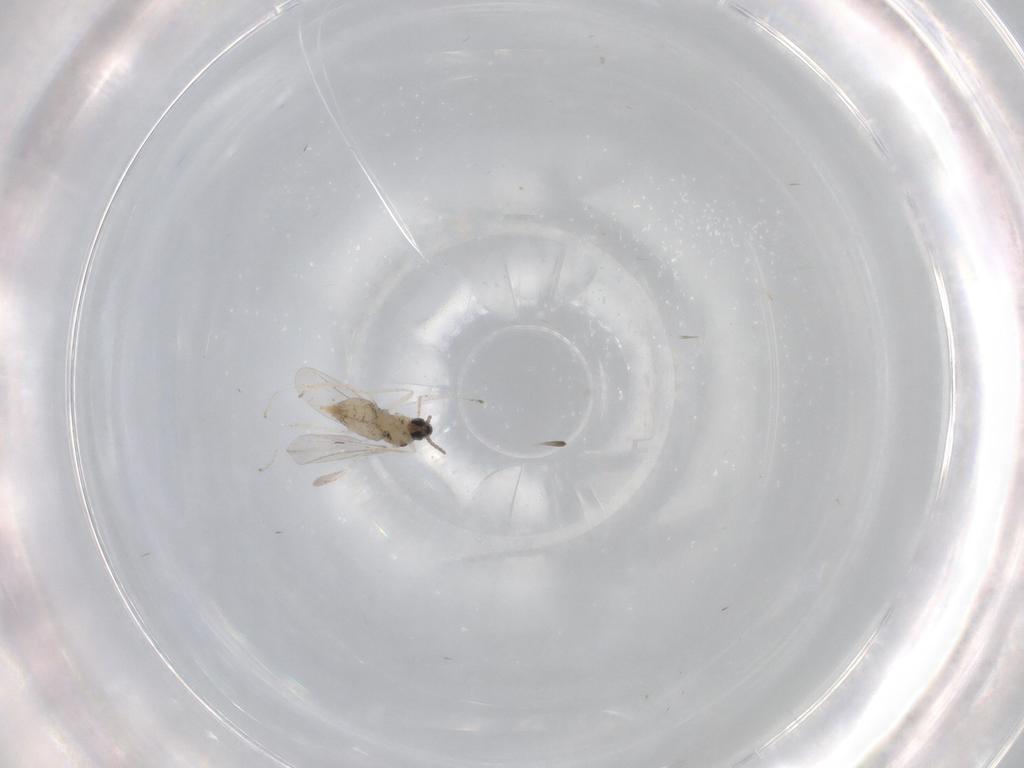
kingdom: Animalia
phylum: Arthropoda
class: Insecta
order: Diptera
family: Cecidomyiidae
